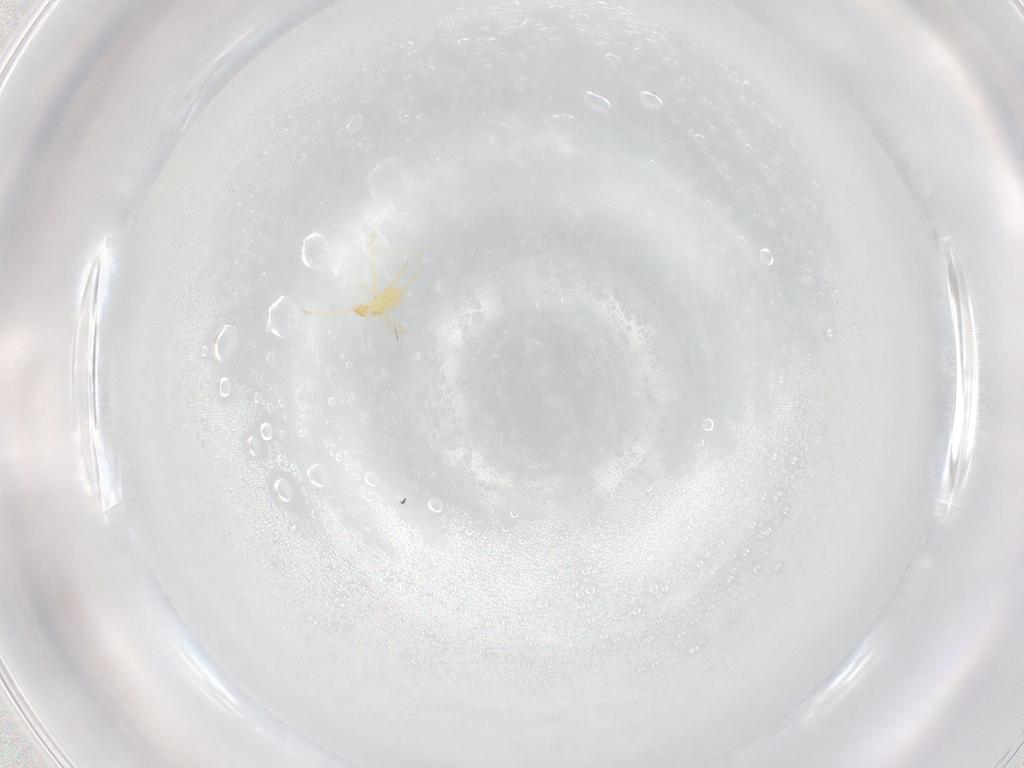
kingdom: Animalia
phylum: Arthropoda
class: Arachnida
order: Trombidiformes
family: Erythraeidae
